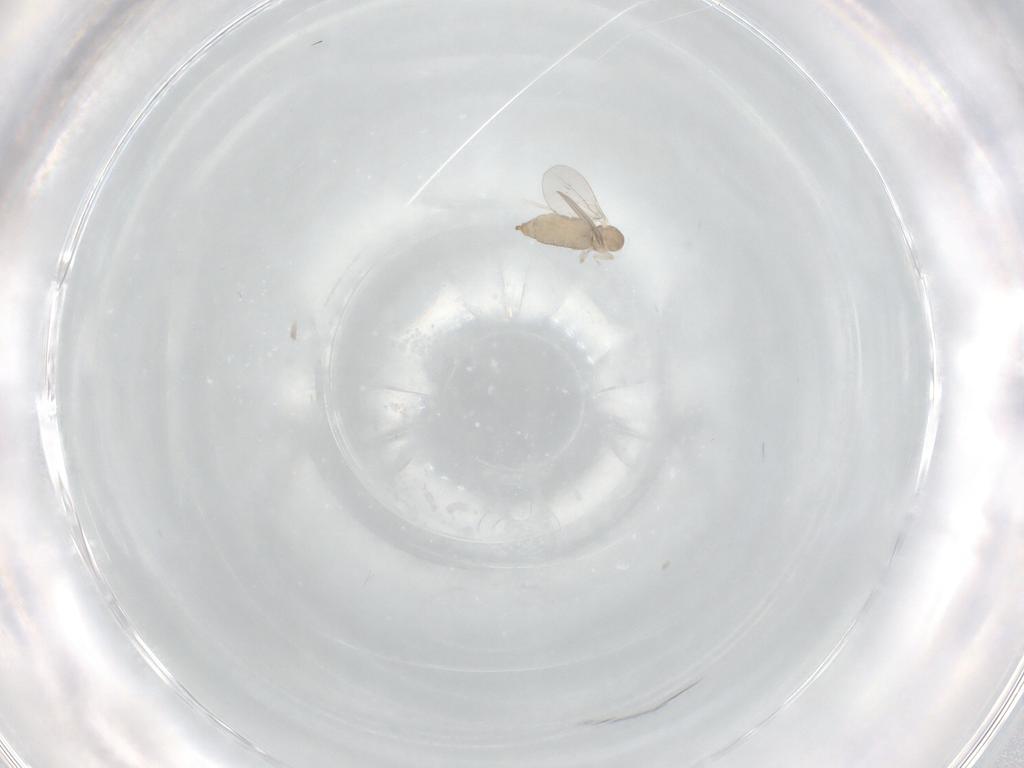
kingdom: Animalia
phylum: Arthropoda
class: Insecta
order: Diptera
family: Cecidomyiidae
